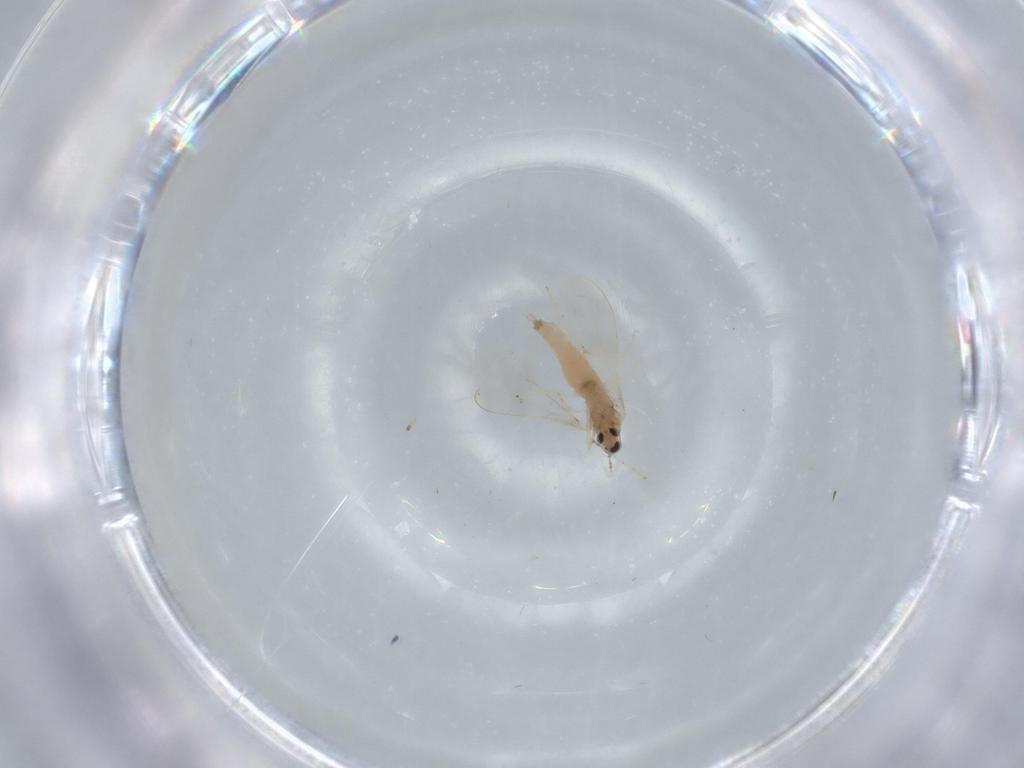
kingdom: Animalia
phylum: Arthropoda
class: Insecta
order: Diptera
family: Cecidomyiidae
